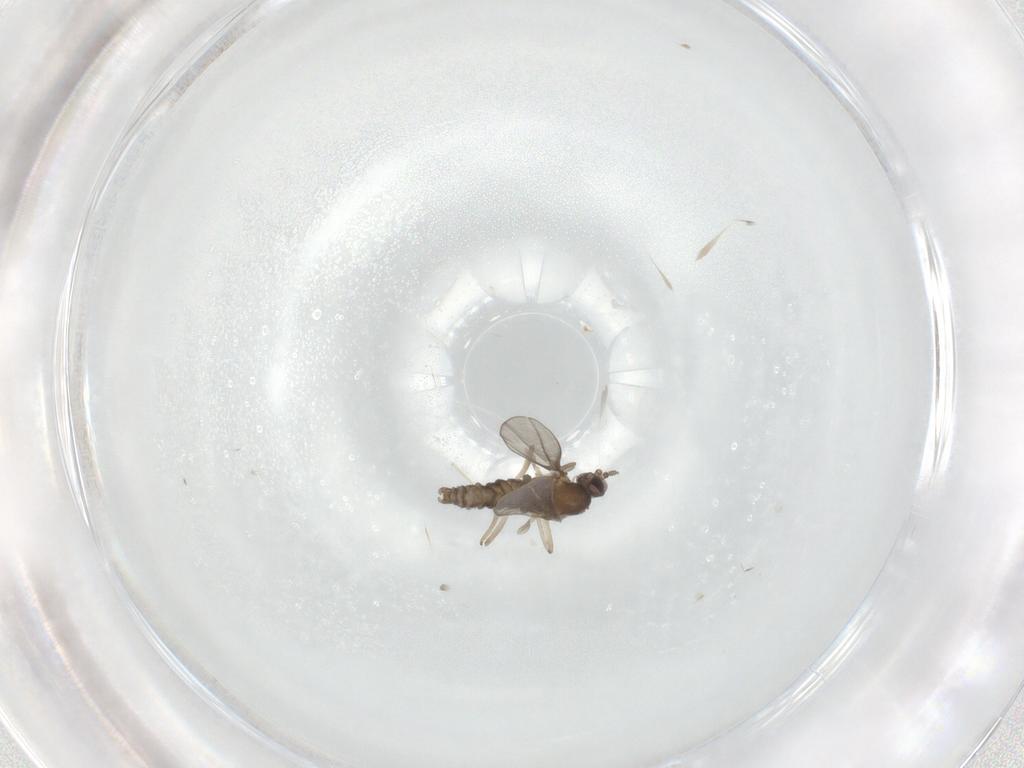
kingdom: Animalia
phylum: Arthropoda
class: Insecta
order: Diptera
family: Cecidomyiidae
